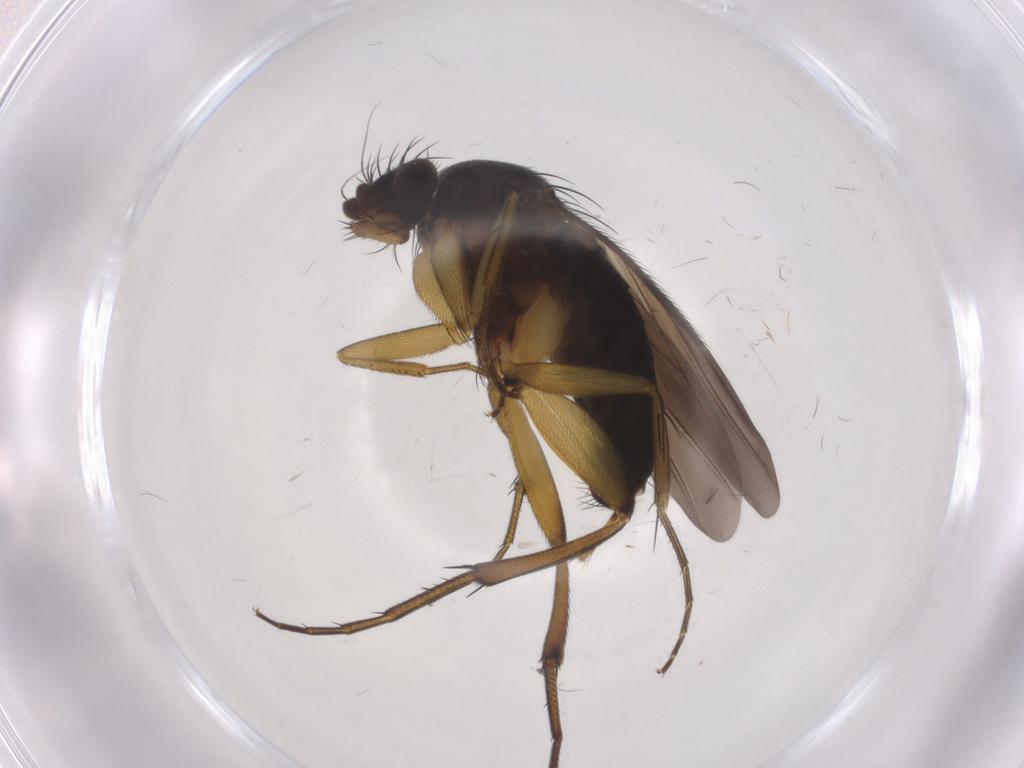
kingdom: Animalia
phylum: Arthropoda
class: Insecta
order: Diptera
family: Phoridae
